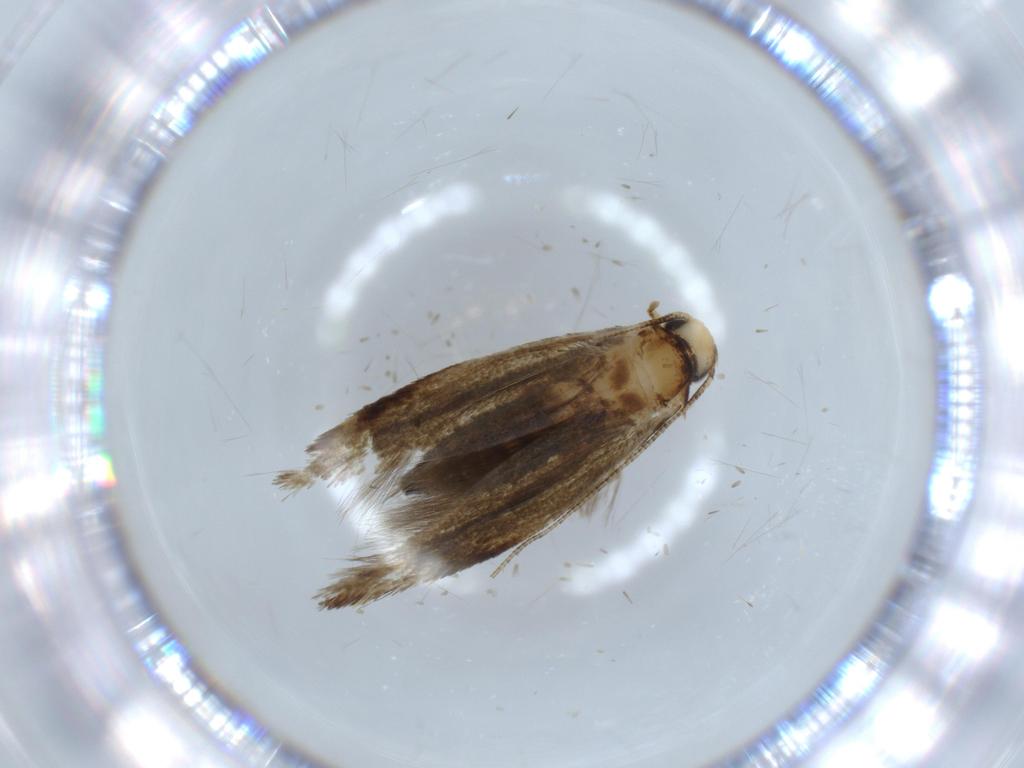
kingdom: Animalia
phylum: Arthropoda
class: Insecta
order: Lepidoptera
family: Tineidae
